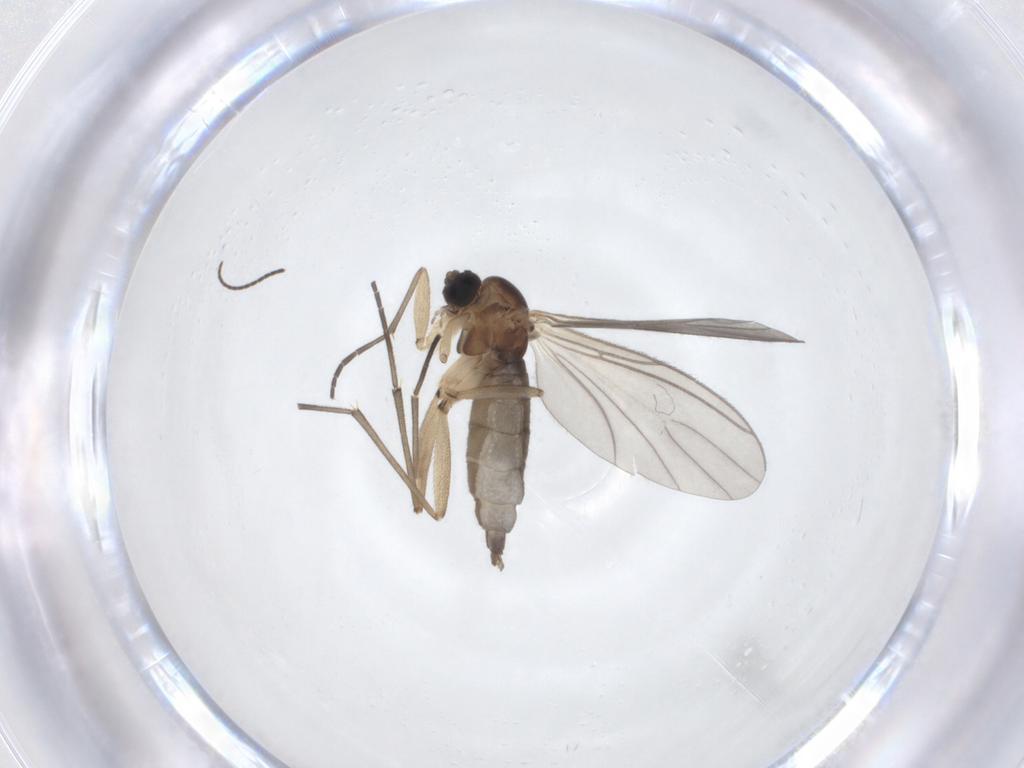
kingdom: Animalia
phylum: Arthropoda
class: Insecta
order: Diptera
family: Sciaridae
